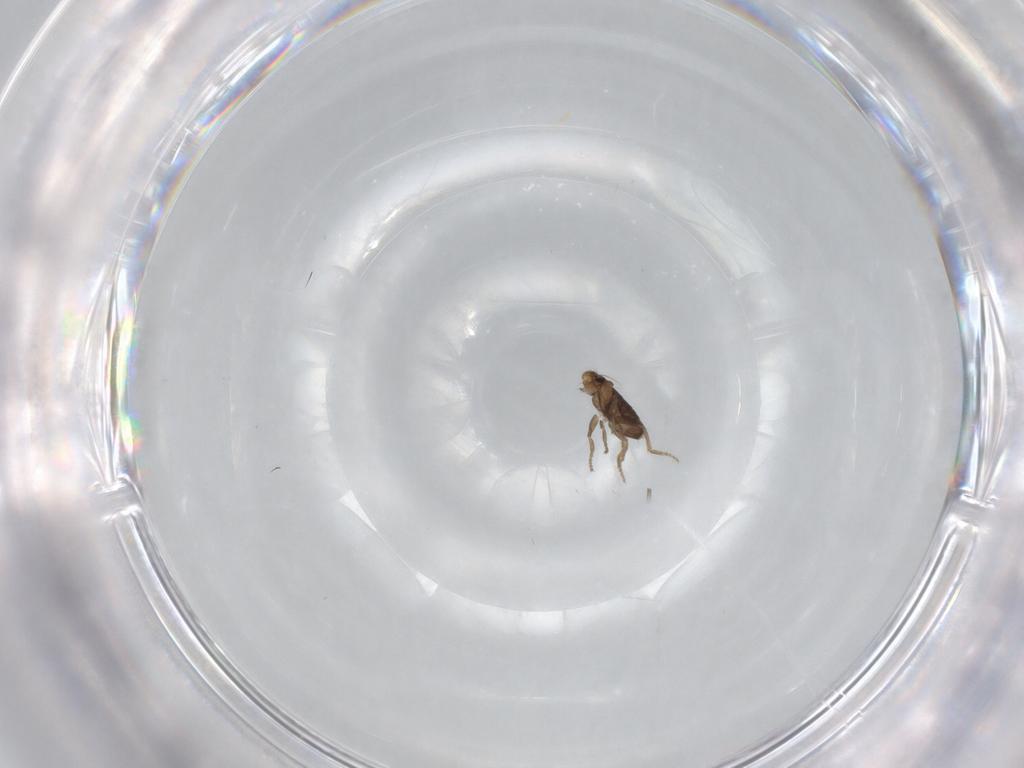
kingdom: Animalia
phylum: Arthropoda
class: Insecta
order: Diptera
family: Phoridae
